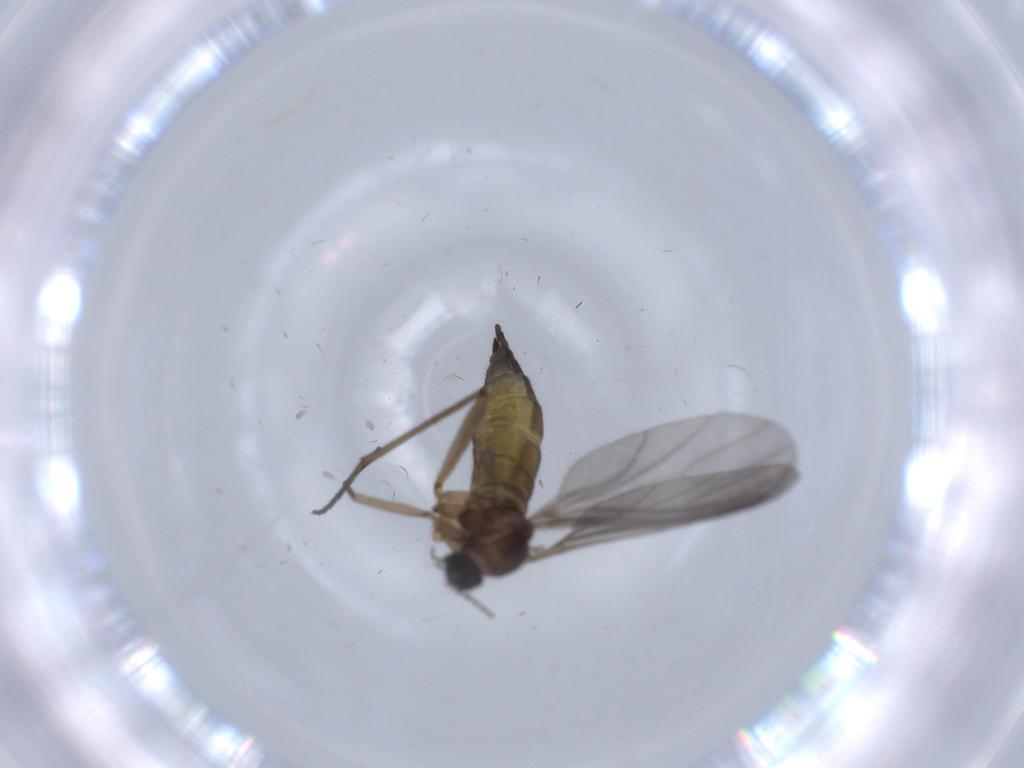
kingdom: Animalia
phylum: Arthropoda
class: Insecta
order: Diptera
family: Sciaridae
